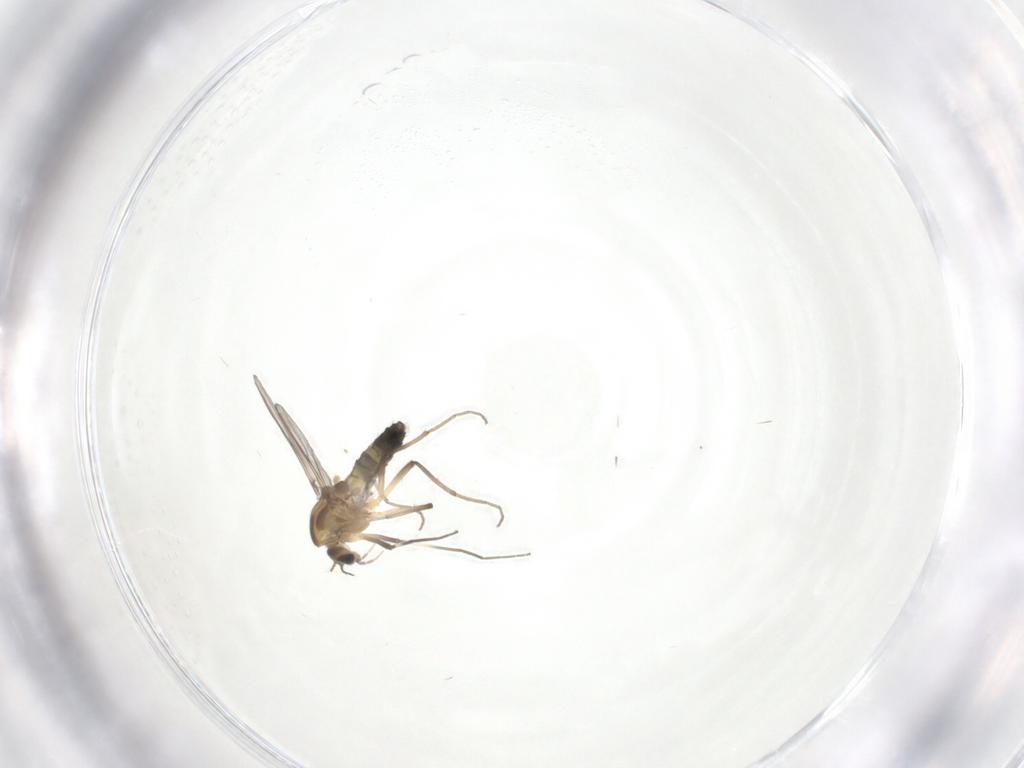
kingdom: Animalia
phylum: Arthropoda
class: Insecta
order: Diptera
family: Chironomidae
